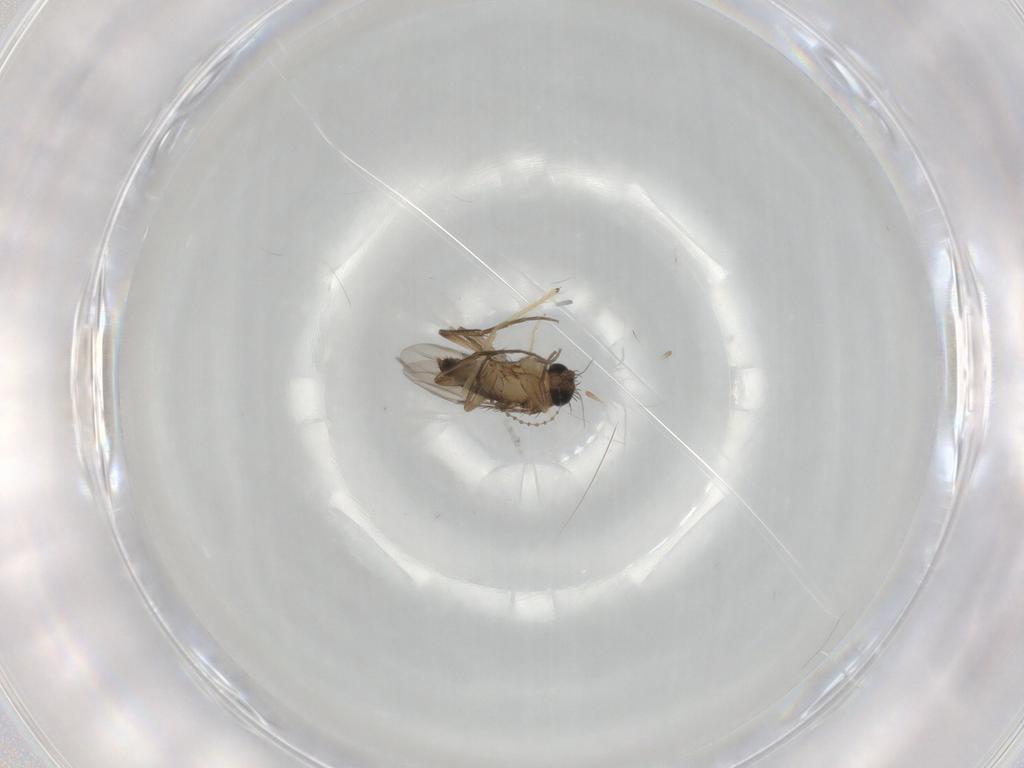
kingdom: Animalia
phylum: Arthropoda
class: Insecta
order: Diptera
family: Phoridae
